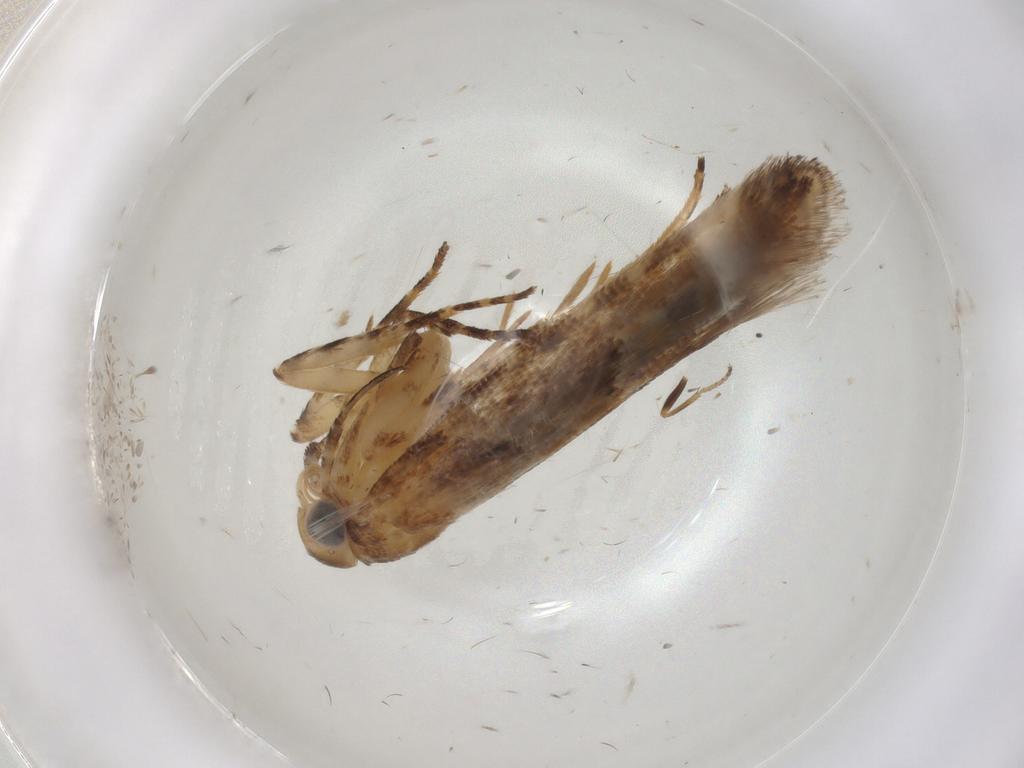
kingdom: Animalia
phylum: Arthropoda
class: Insecta
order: Lepidoptera
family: Gelechiidae
